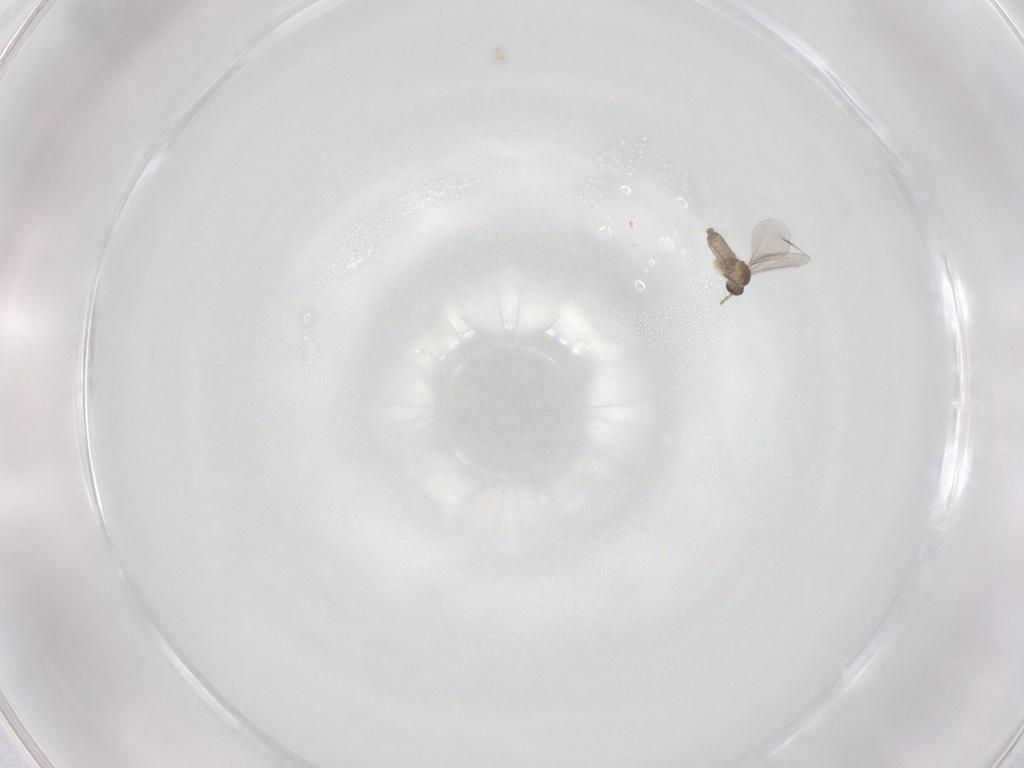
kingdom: Animalia
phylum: Arthropoda
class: Insecta
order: Diptera
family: Cecidomyiidae
